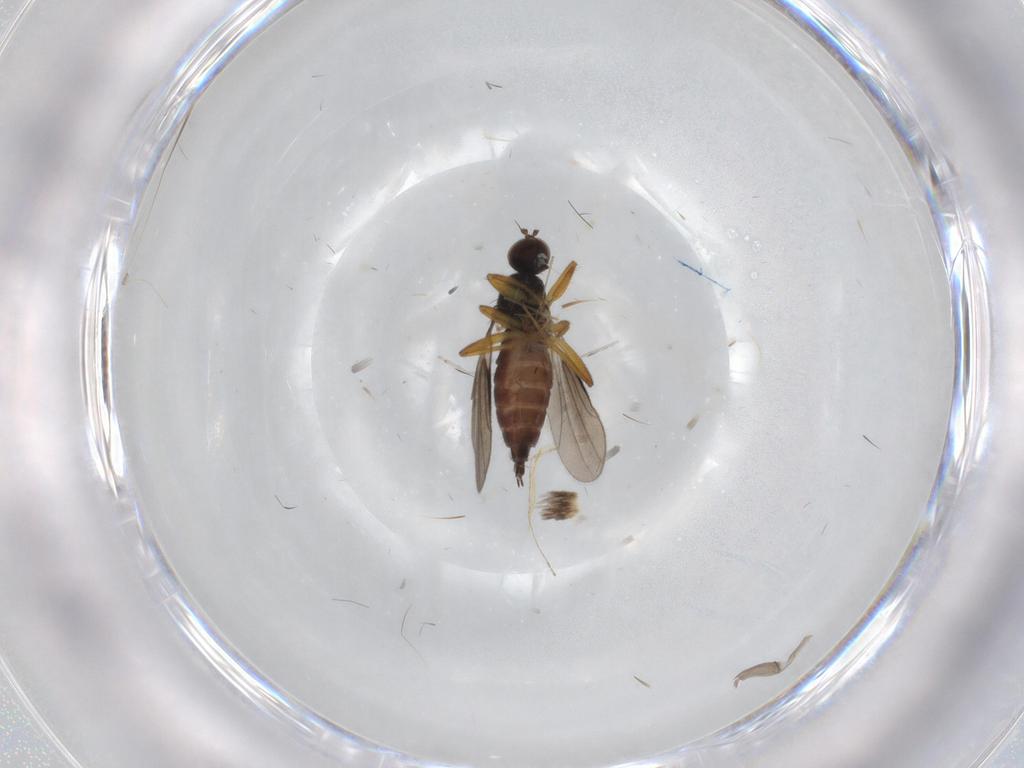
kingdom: Animalia
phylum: Arthropoda
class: Insecta
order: Diptera
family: Hybotidae
